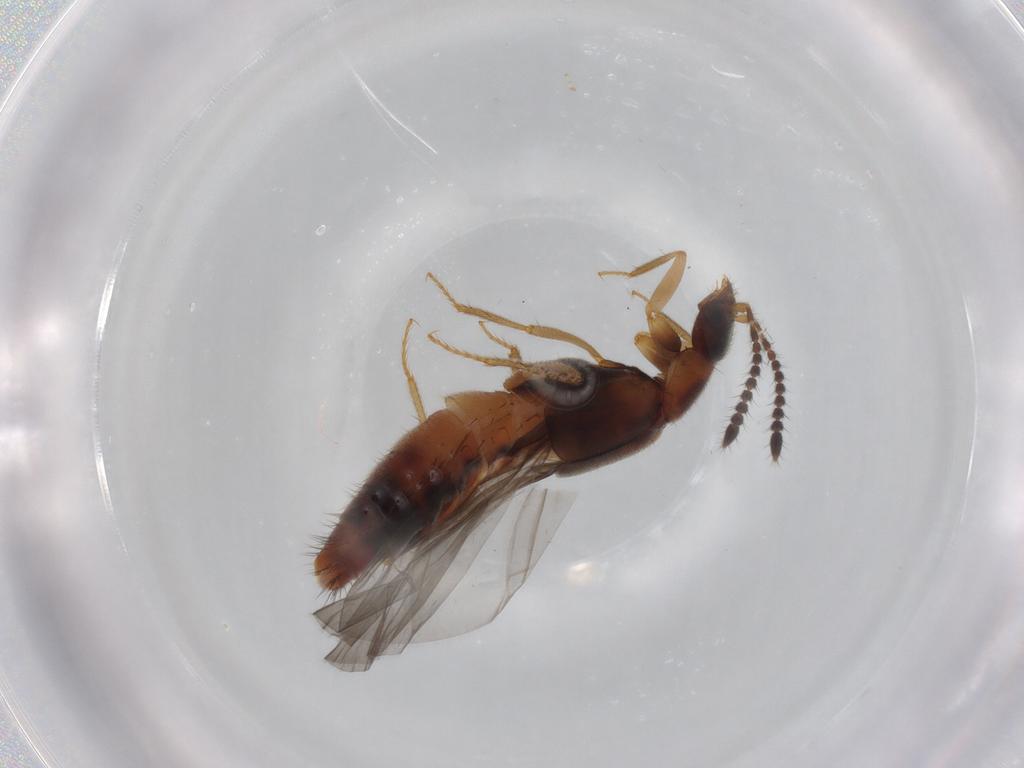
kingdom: Animalia
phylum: Arthropoda
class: Insecta
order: Coleoptera
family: Staphylinidae
